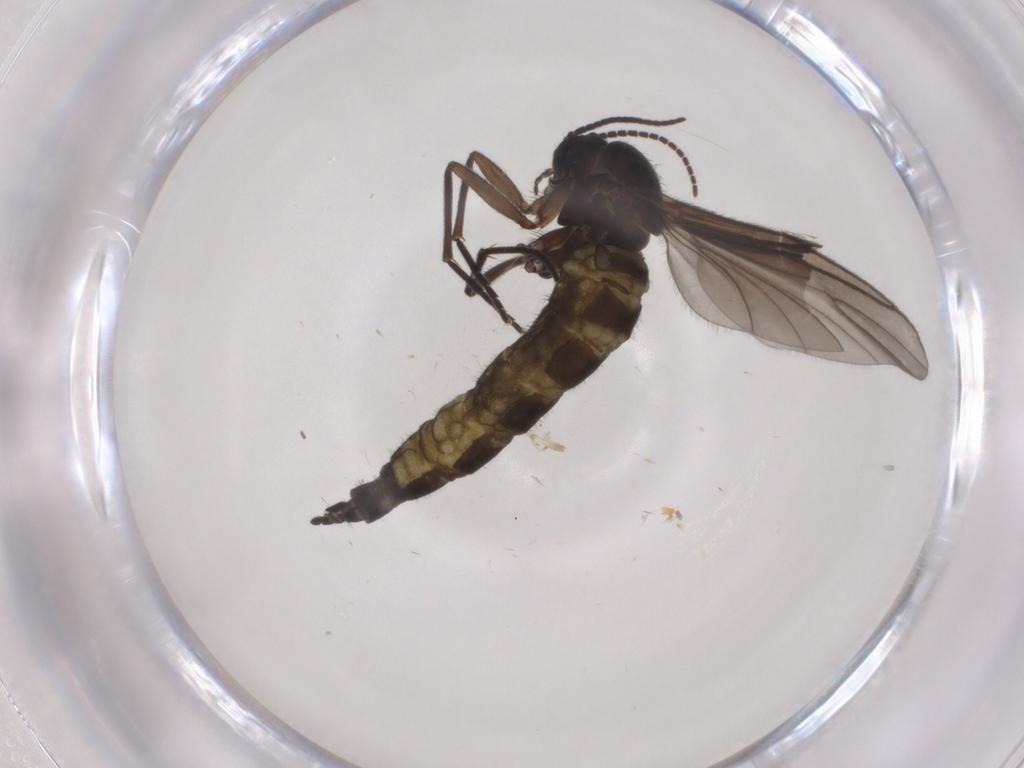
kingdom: Animalia
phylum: Arthropoda
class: Insecta
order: Diptera
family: Sciaridae
